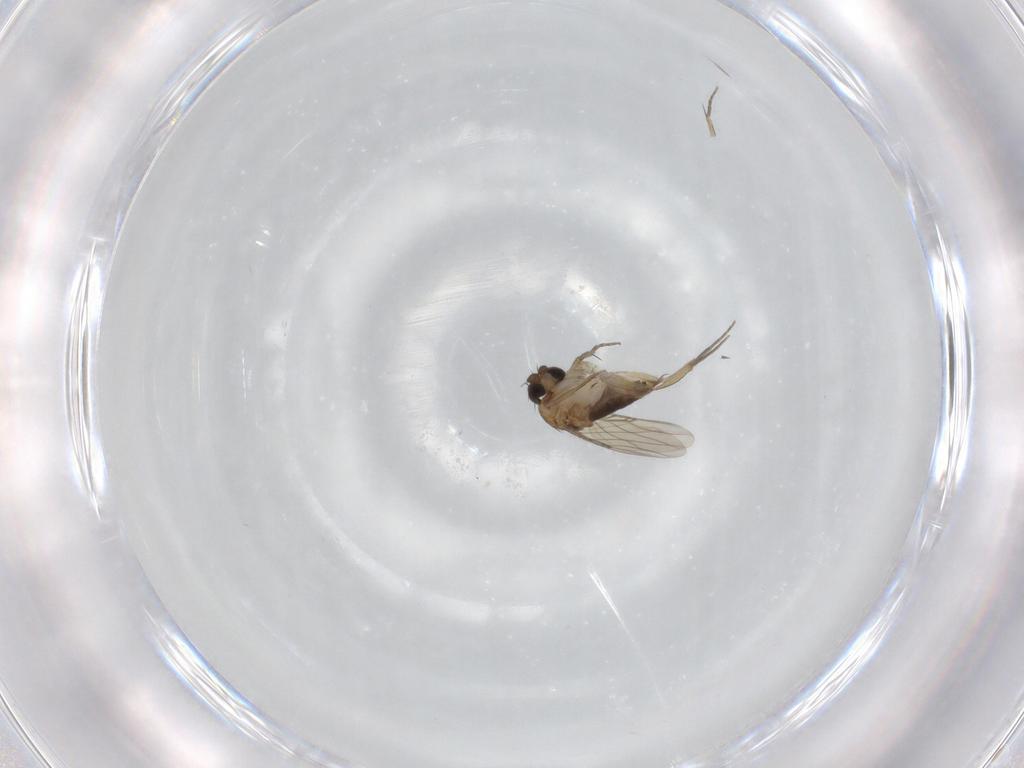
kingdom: Animalia
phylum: Arthropoda
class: Insecta
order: Diptera
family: Phoridae
